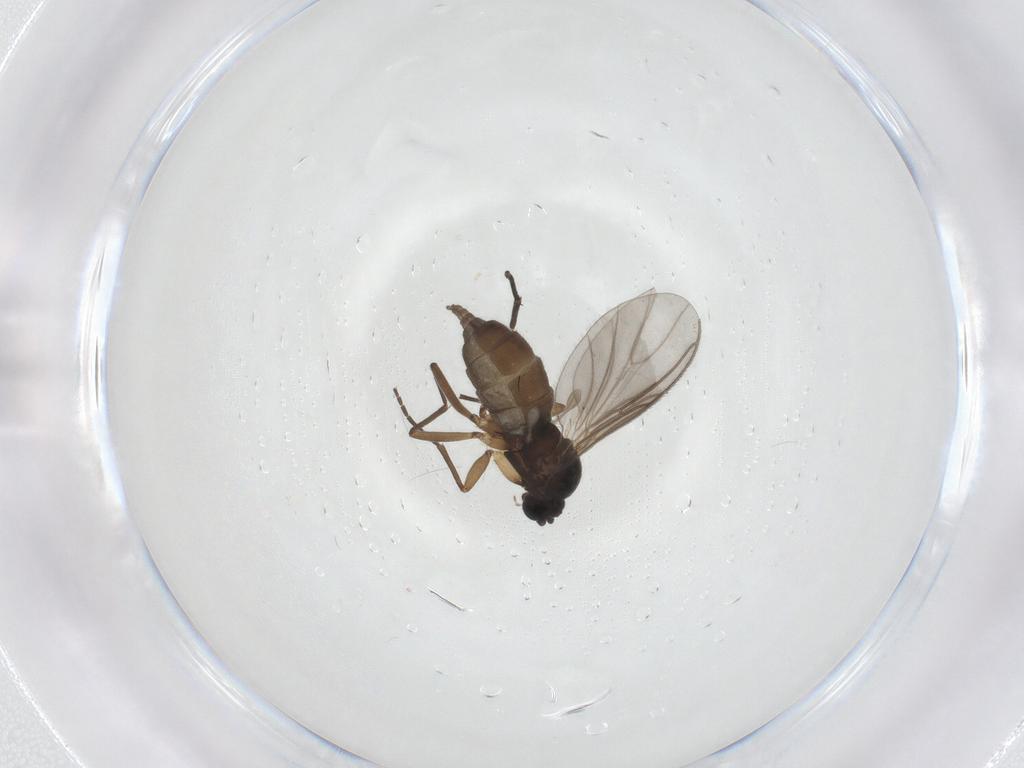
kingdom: Animalia
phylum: Arthropoda
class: Insecta
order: Diptera
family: Sciaridae
